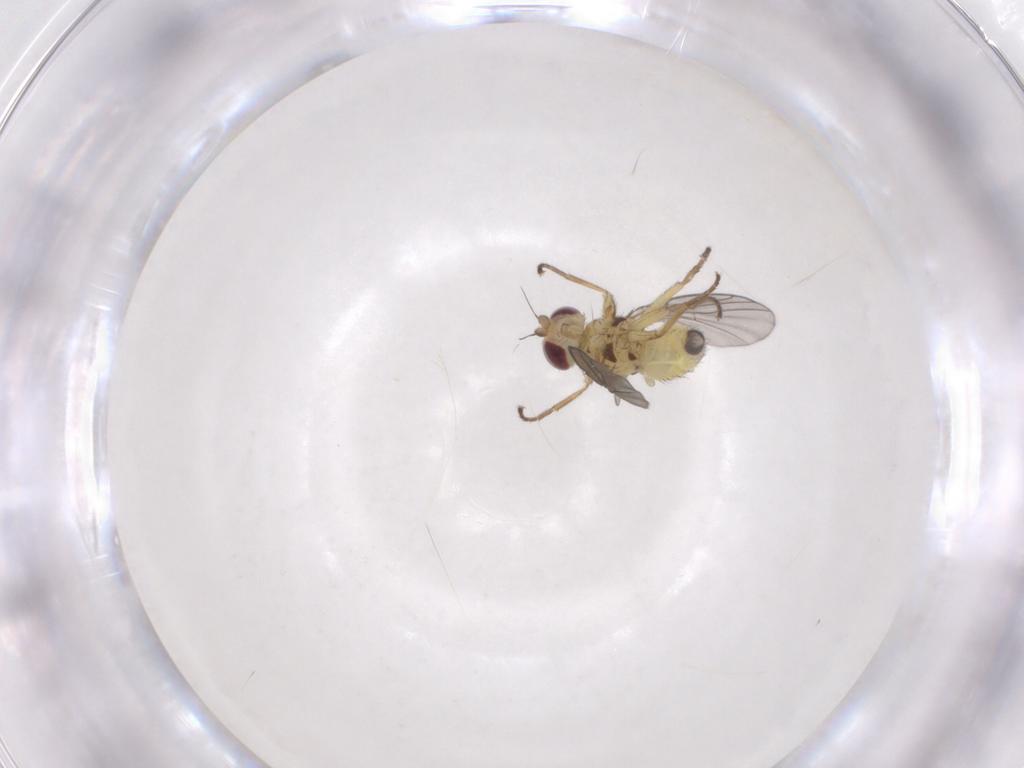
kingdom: Animalia
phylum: Arthropoda
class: Insecta
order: Diptera
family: Agromyzidae
